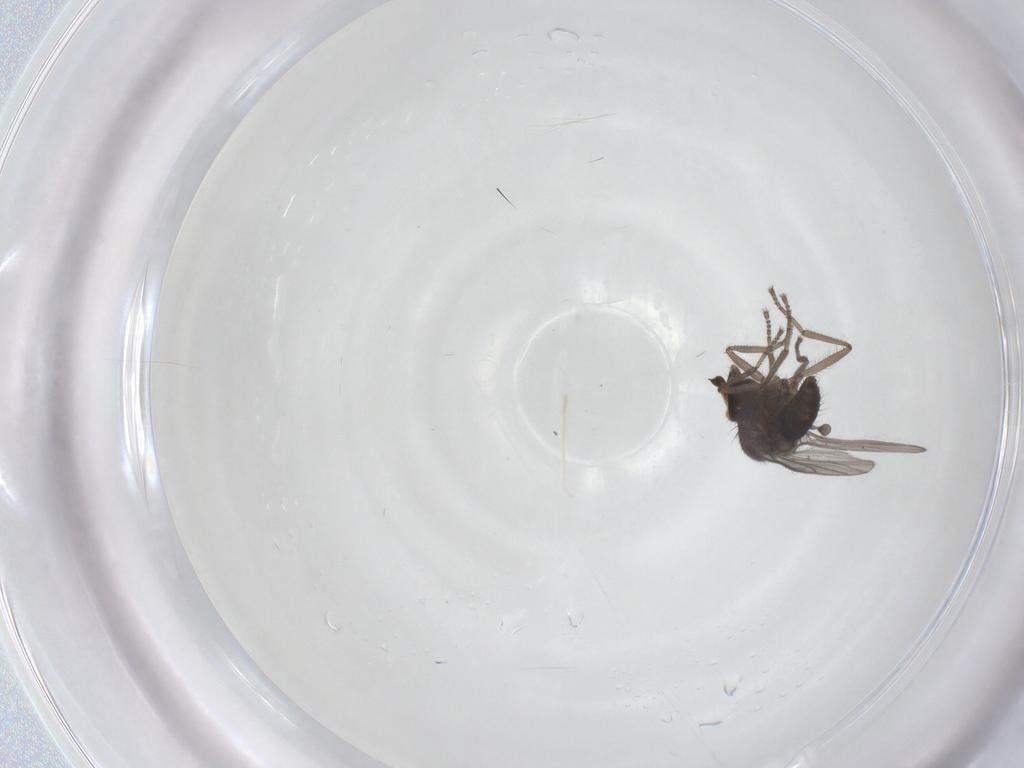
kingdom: Animalia
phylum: Arthropoda
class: Insecta
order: Diptera
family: Hybotidae
